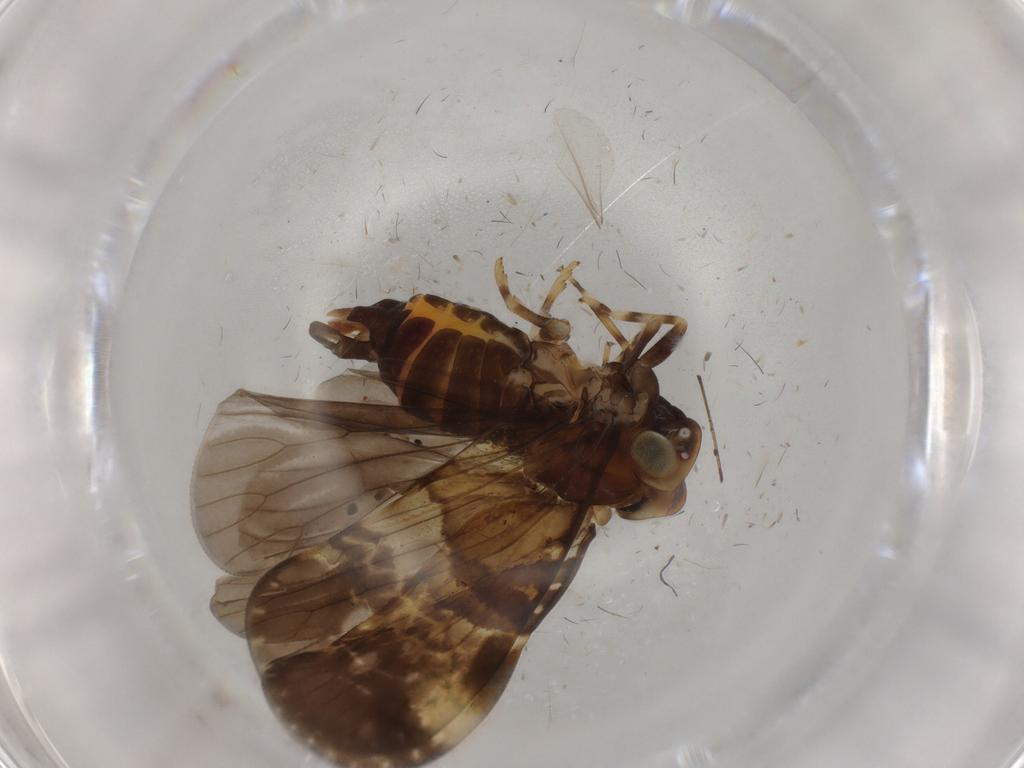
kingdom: Animalia
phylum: Arthropoda
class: Insecta
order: Hemiptera
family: Cixiidae
